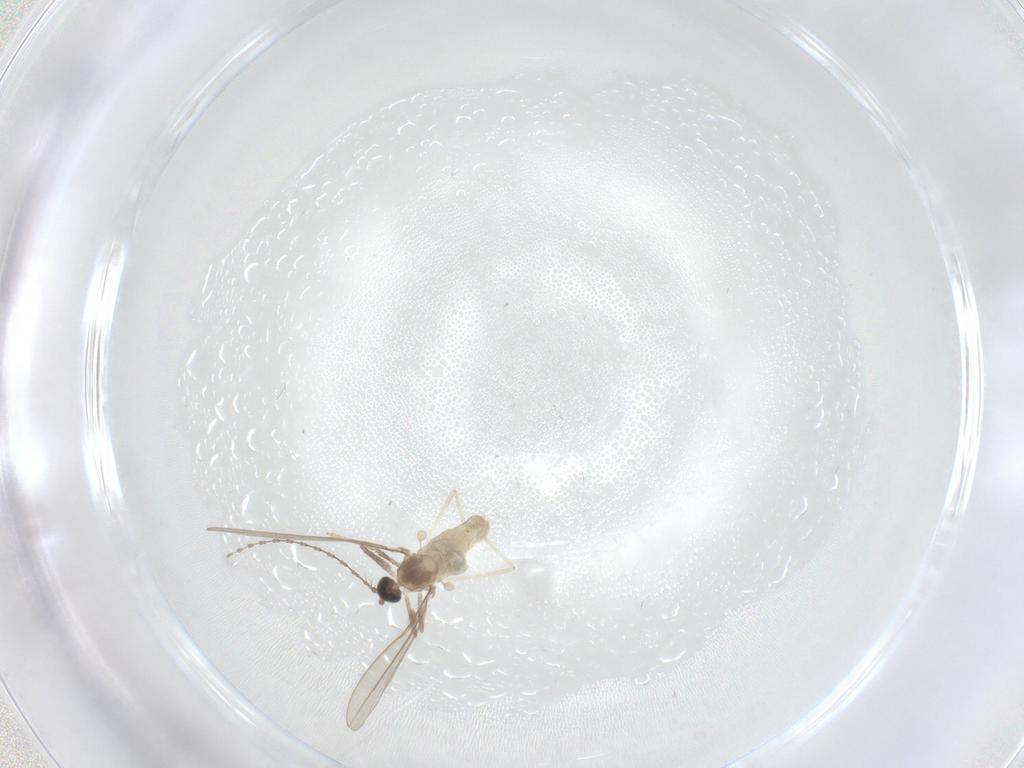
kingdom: Animalia
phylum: Arthropoda
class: Insecta
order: Diptera
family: Cecidomyiidae
